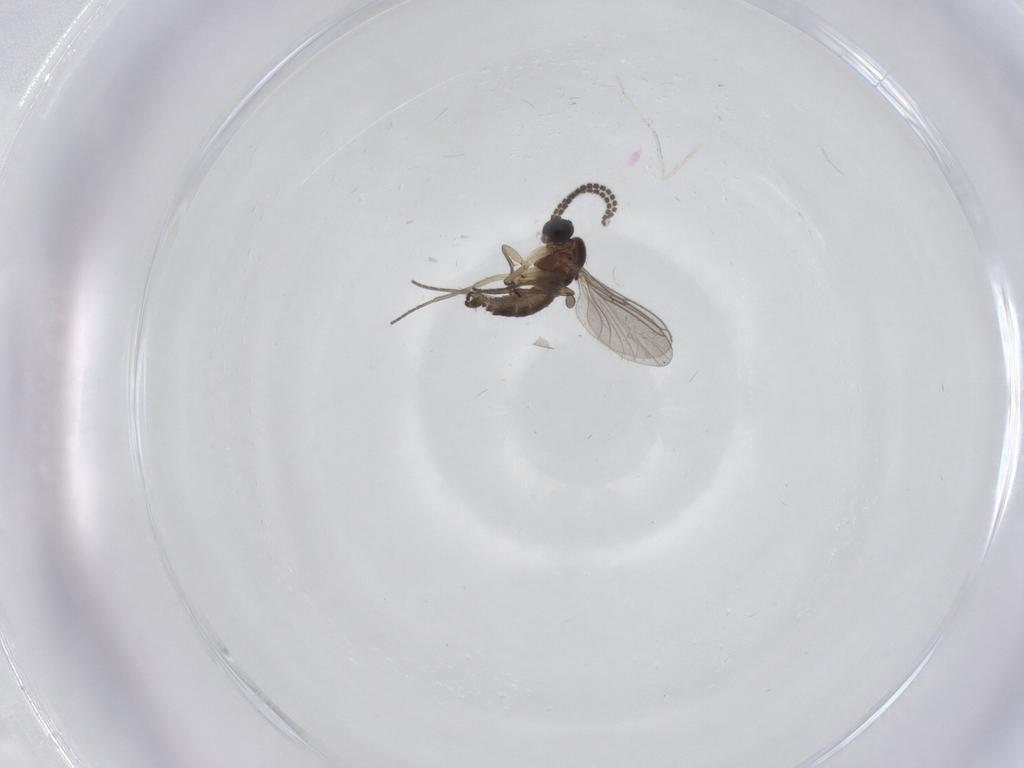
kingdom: Animalia
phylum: Arthropoda
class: Insecta
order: Diptera
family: Sciaridae
